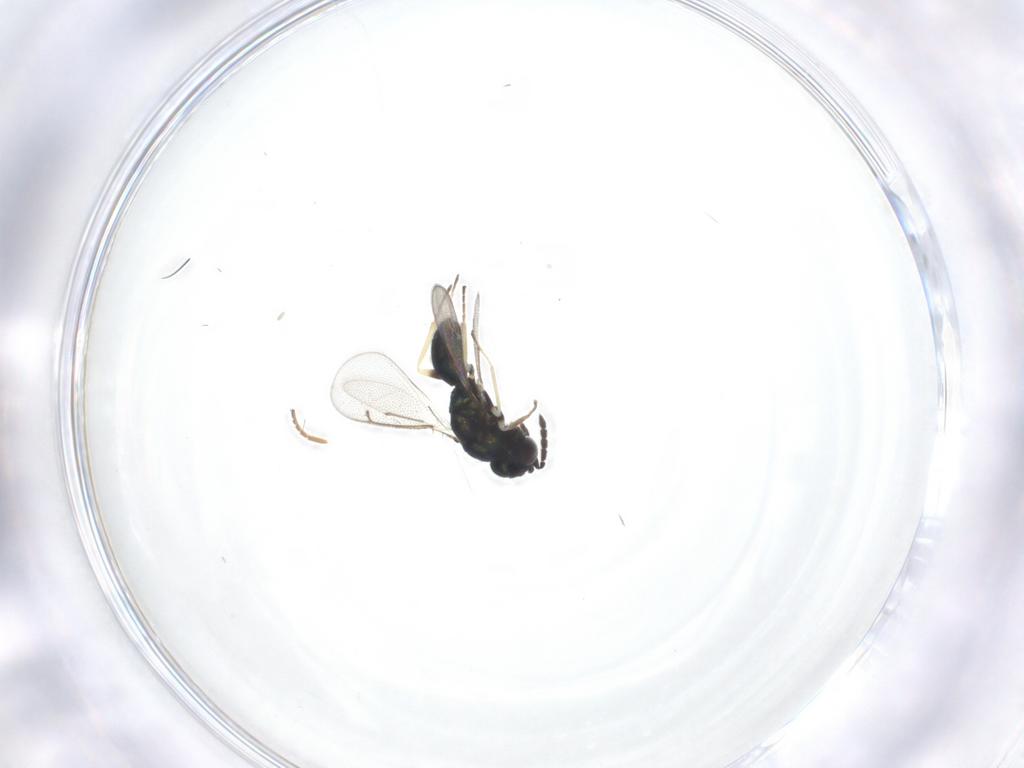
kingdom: Animalia
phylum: Arthropoda
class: Insecta
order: Hymenoptera
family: Eulophidae
